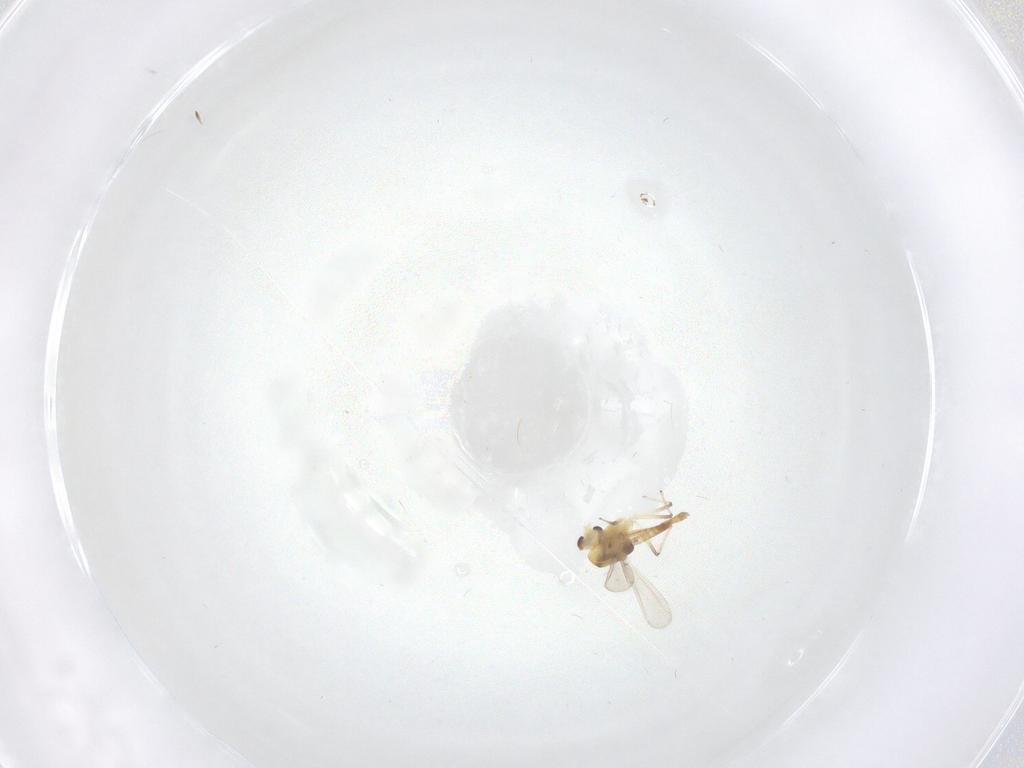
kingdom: Animalia
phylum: Arthropoda
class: Insecta
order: Diptera
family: Chironomidae
